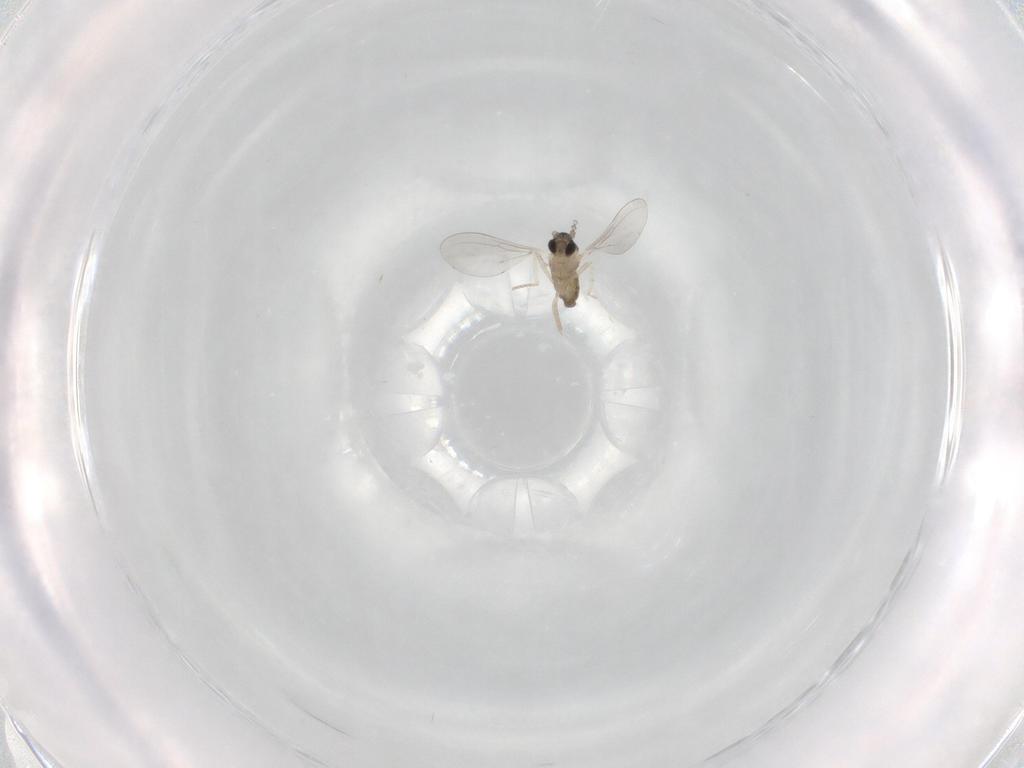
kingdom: Animalia
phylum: Arthropoda
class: Insecta
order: Diptera
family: Cecidomyiidae
